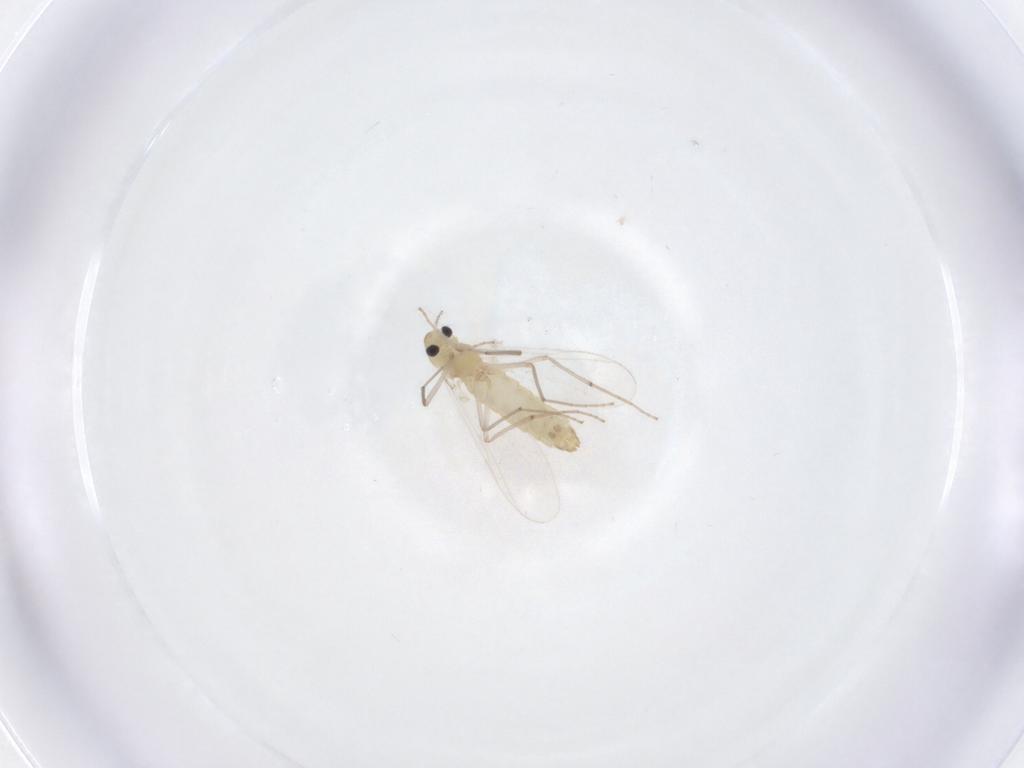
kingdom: Animalia
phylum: Arthropoda
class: Insecta
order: Diptera
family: Chironomidae
